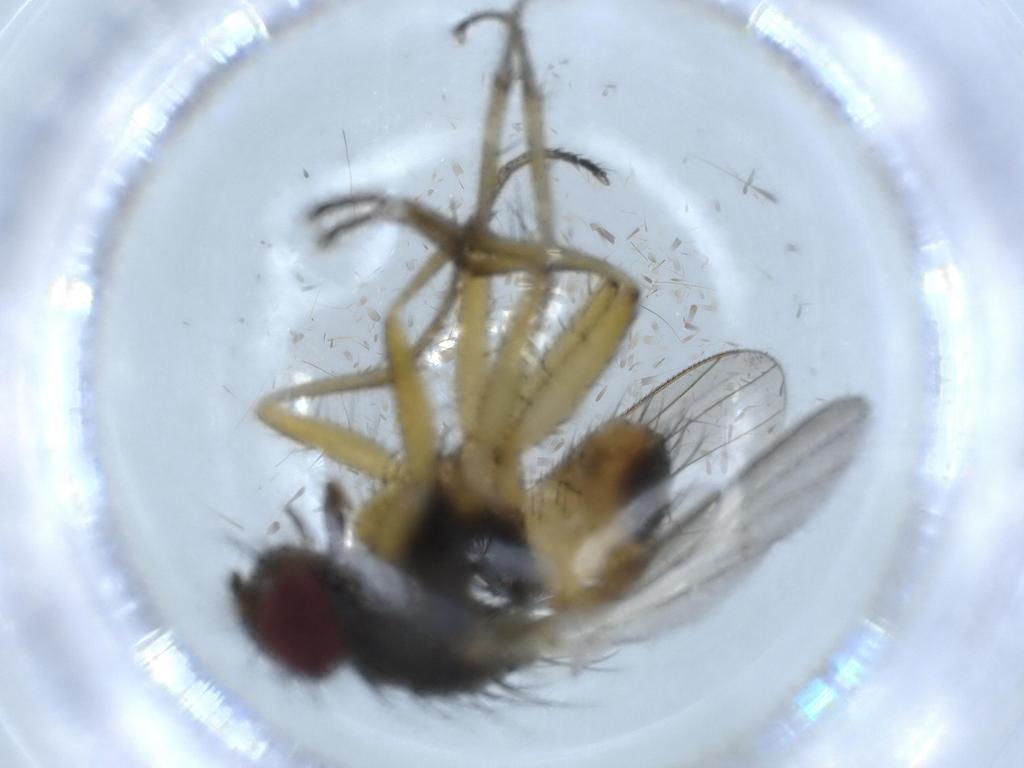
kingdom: Animalia
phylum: Arthropoda
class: Insecta
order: Diptera
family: Muscidae
